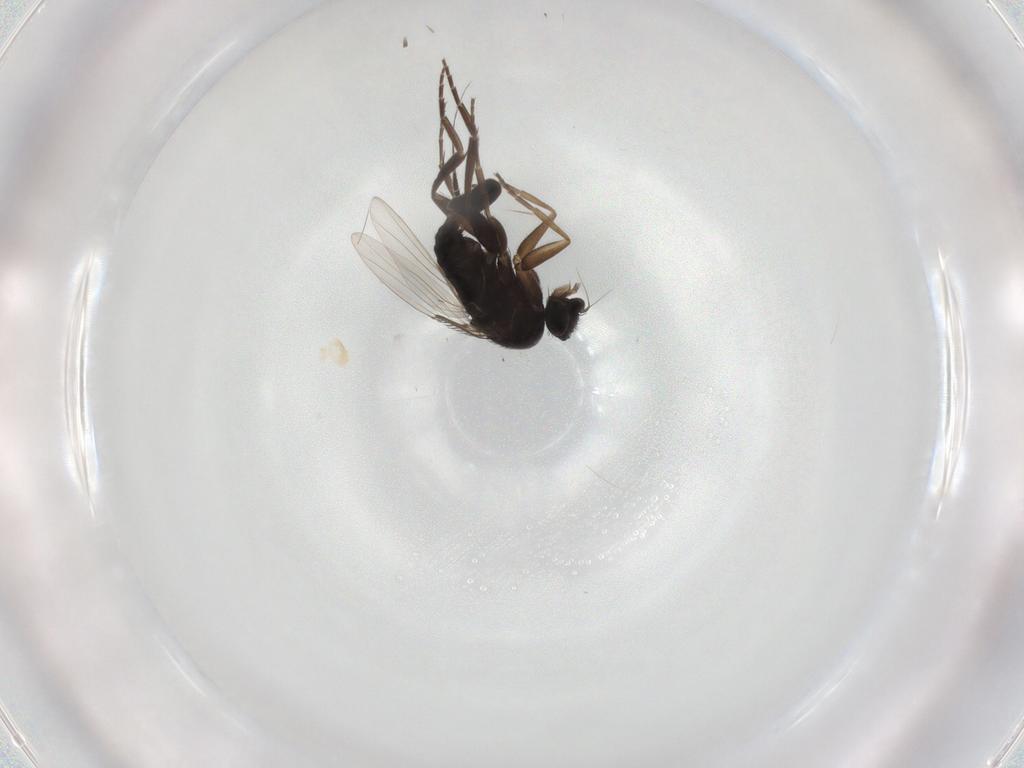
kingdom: Animalia
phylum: Arthropoda
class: Insecta
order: Diptera
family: Phoridae
